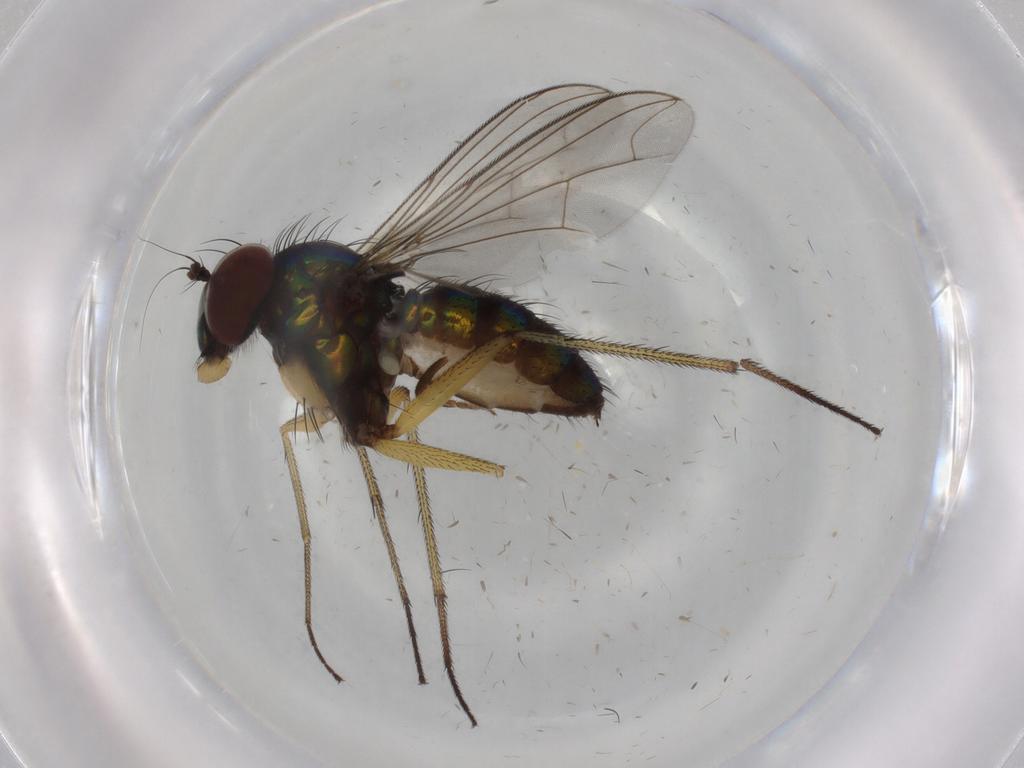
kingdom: Animalia
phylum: Arthropoda
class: Insecta
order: Diptera
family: Dolichopodidae
